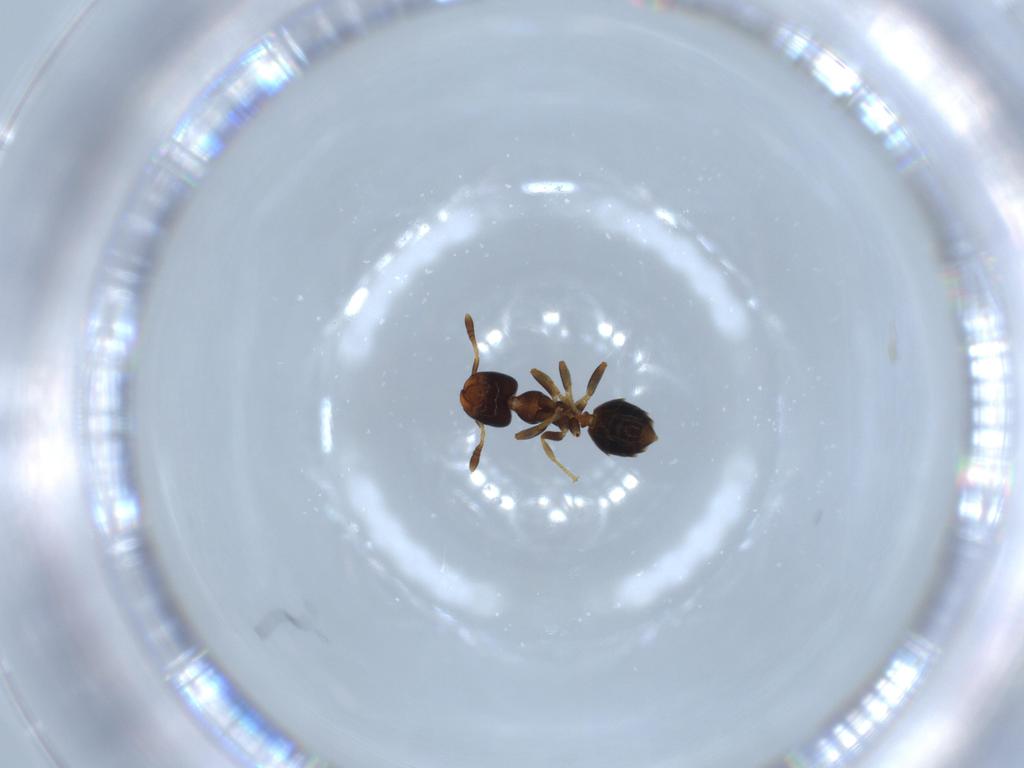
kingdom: Animalia
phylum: Arthropoda
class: Insecta
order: Hymenoptera
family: Formicidae
